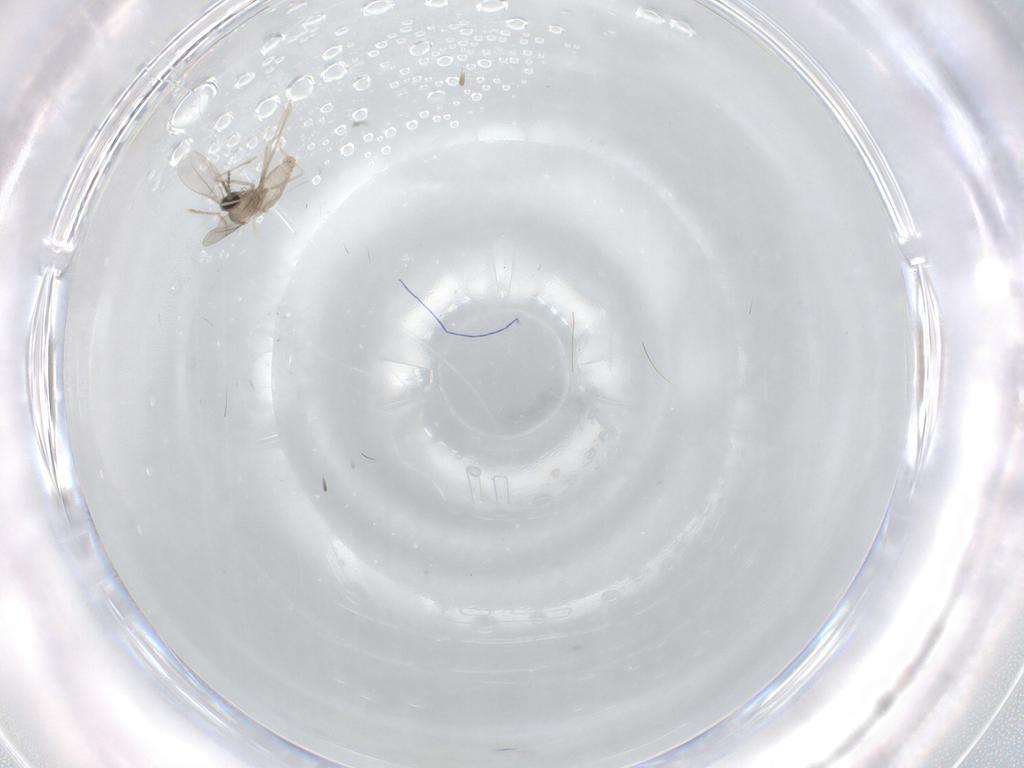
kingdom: Animalia
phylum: Arthropoda
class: Insecta
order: Diptera
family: Cecidomyiidae
